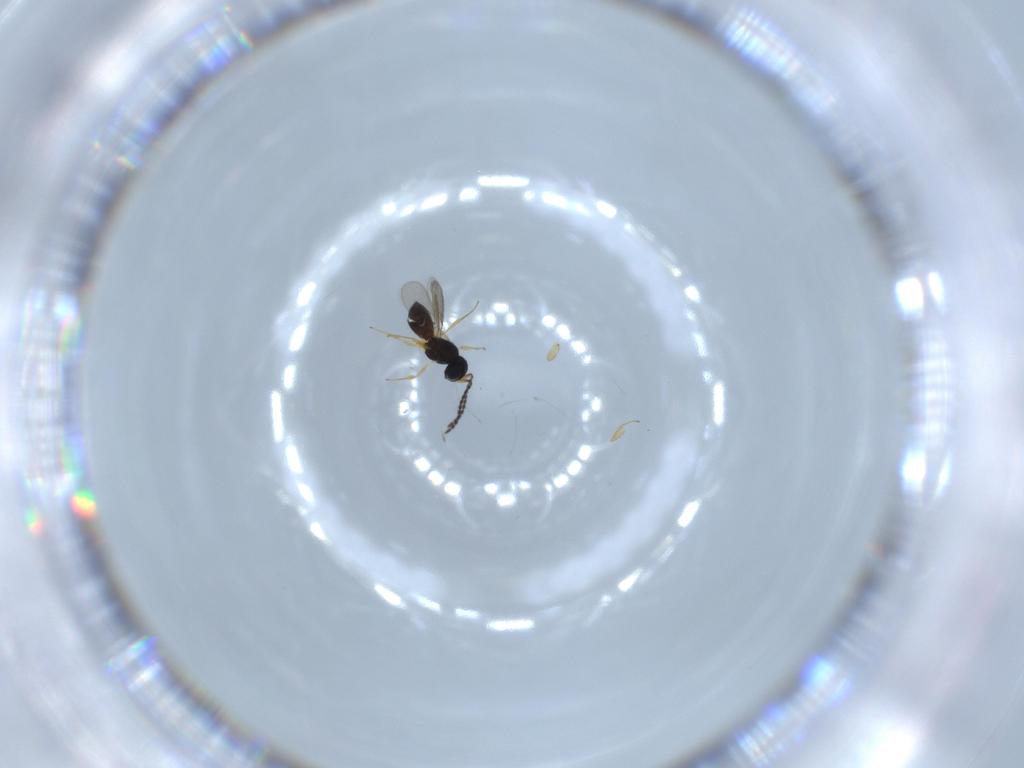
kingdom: Animalia
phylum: Arthropoda
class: Insecta
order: Hymenoptera
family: Scelionidae
